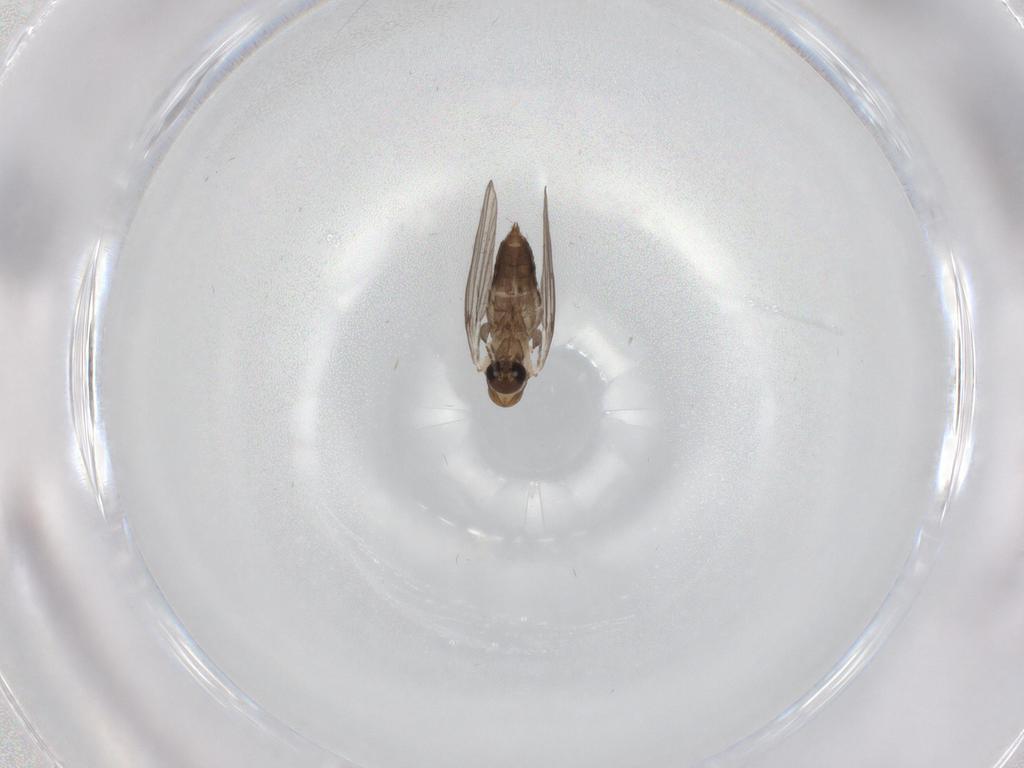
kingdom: Animalia
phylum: Arthropoda
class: Insecta
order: Diptera
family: Psychodidae
